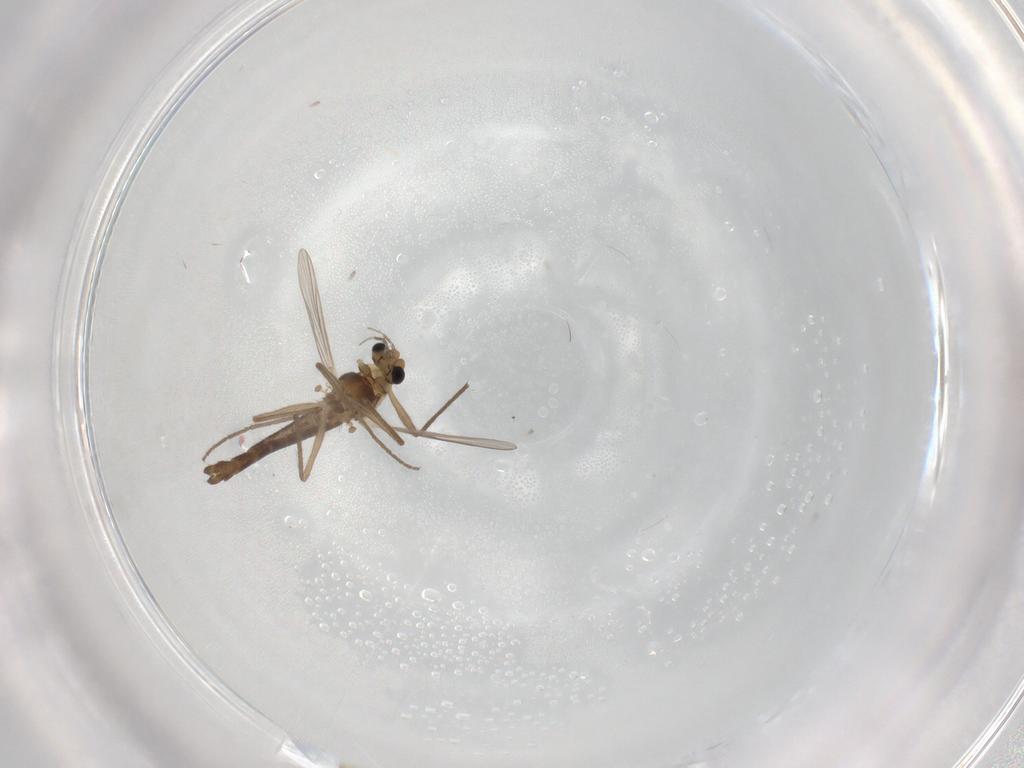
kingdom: Animalia
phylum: Arthropoda
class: Insecta
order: Diptera
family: Chironomidae
